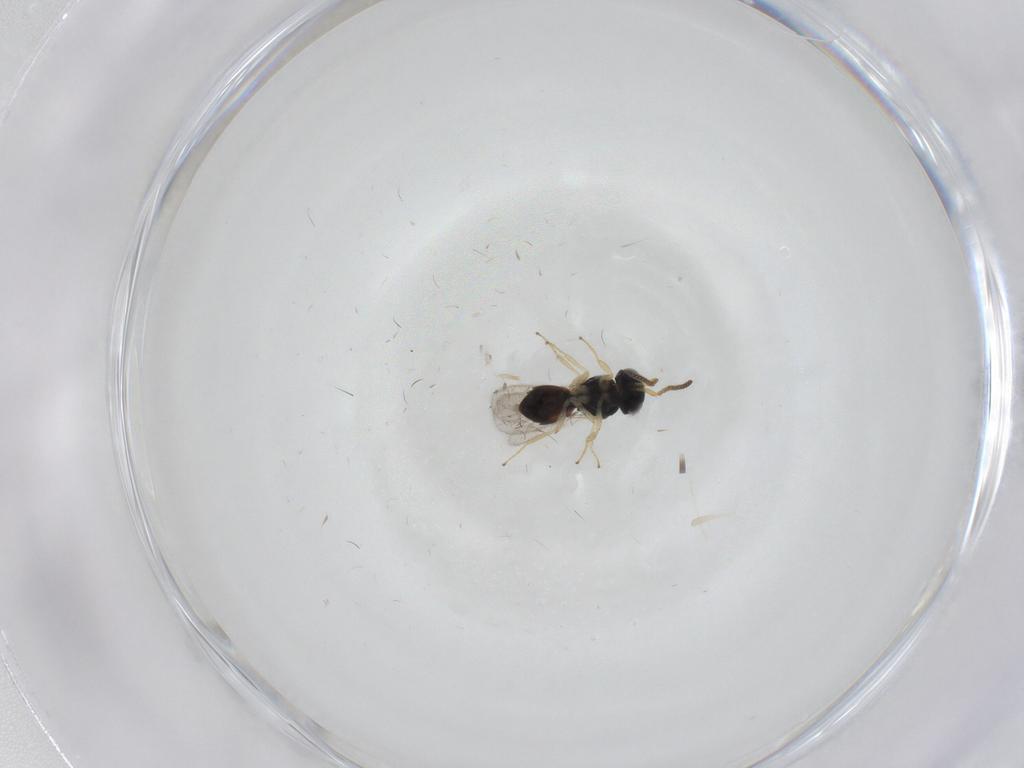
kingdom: Animalia
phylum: Arthropoda
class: Insecta
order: Hymenoptera
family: Scelionidae
